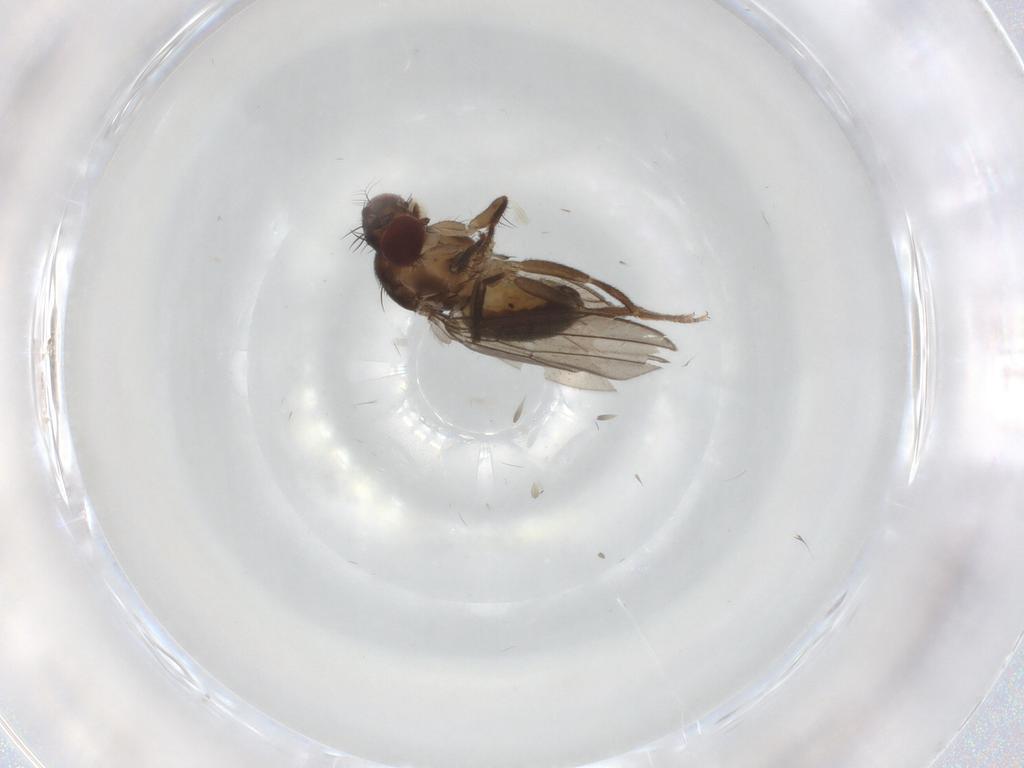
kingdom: Animalia
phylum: Arthropoda
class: Insecta
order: Diptera
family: Drosophilidae
